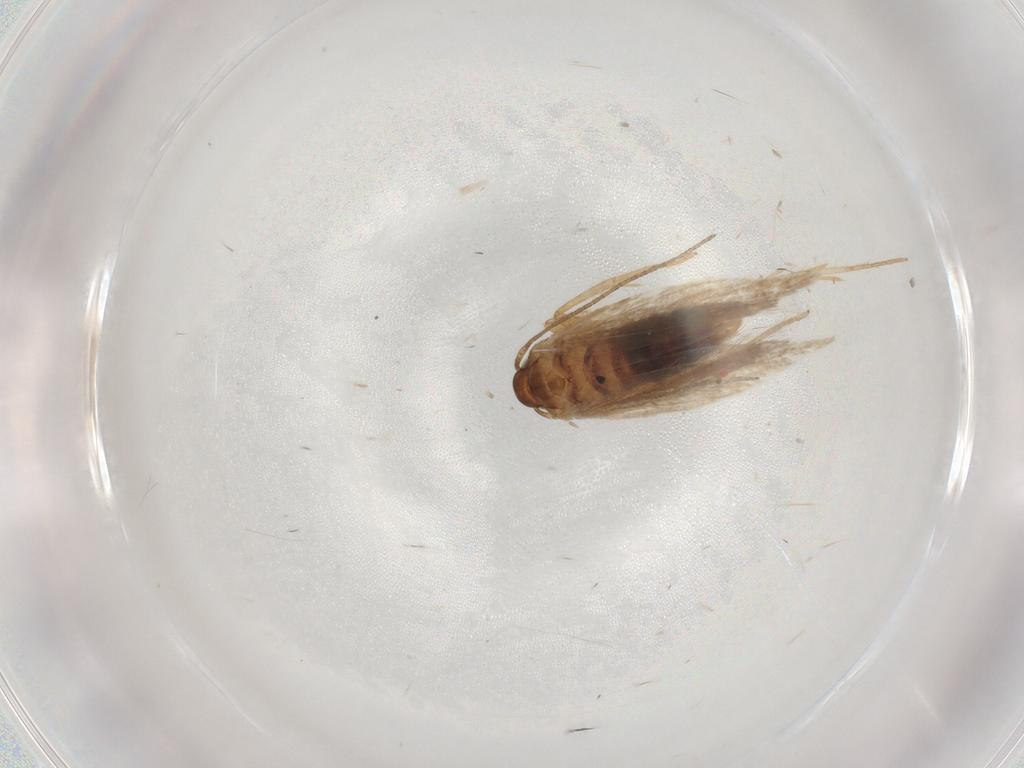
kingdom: Animalia
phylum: Arthropoda
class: Insecta
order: Lepidoptera
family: Gelechiidae
